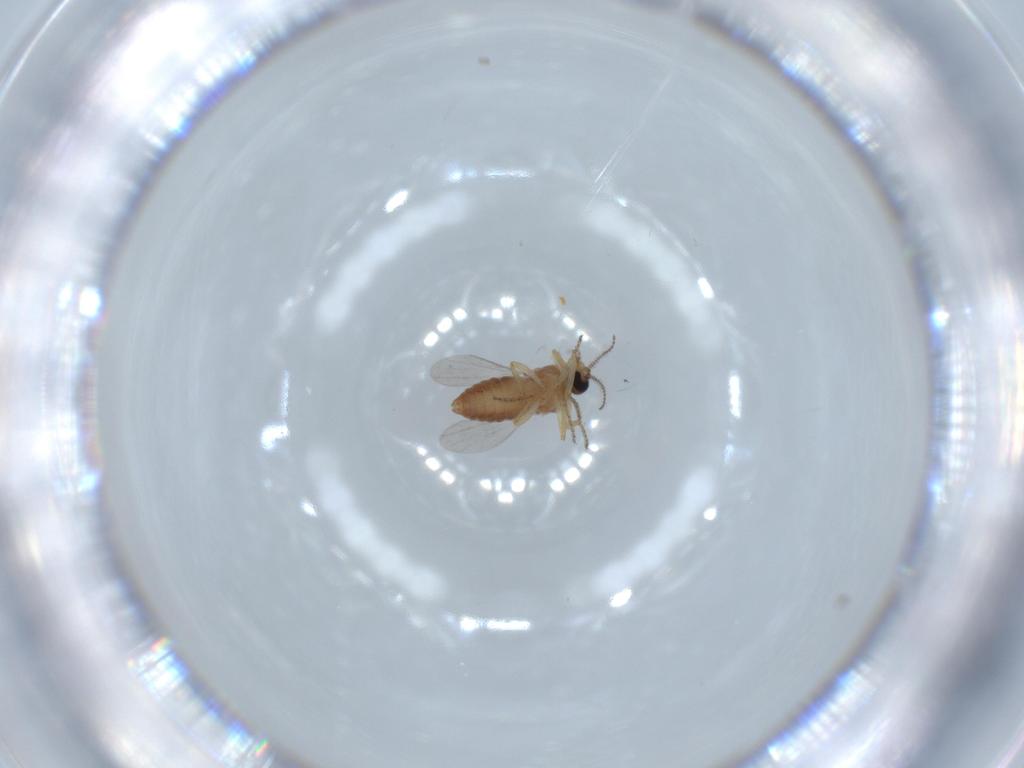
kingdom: Animalia
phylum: Arthropoda
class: Insecta
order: Diptera
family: Ceratopogonidae
